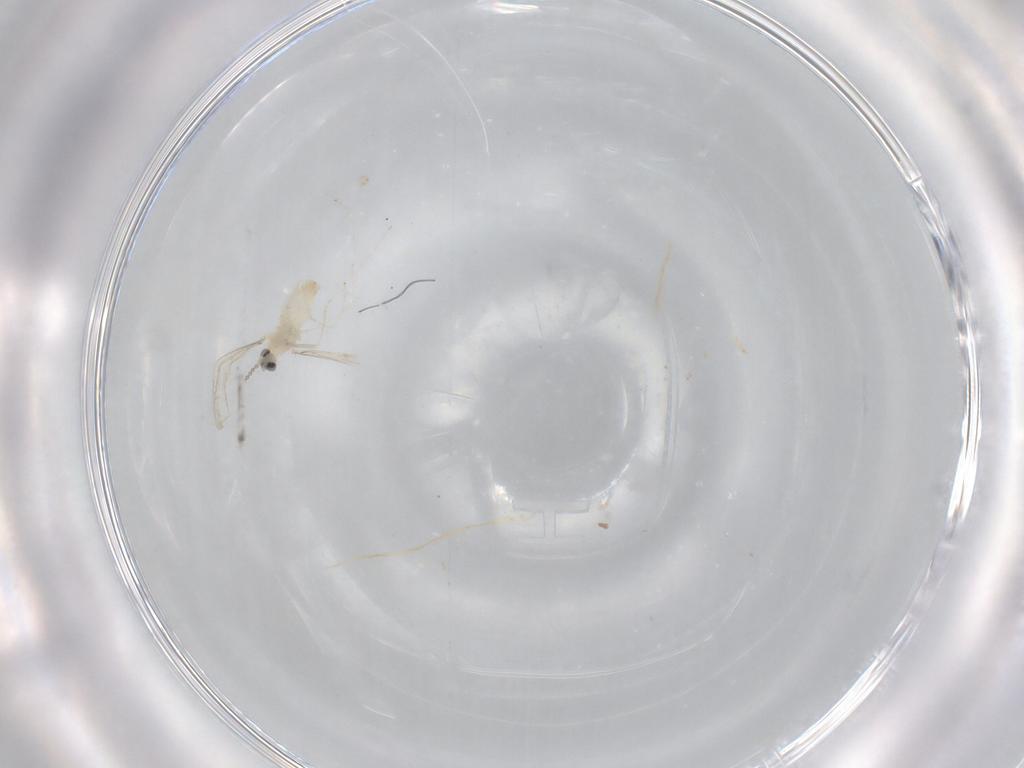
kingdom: Animalia
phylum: Arthropoda
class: Insecta
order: Diptera
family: Cecidomyiidae
